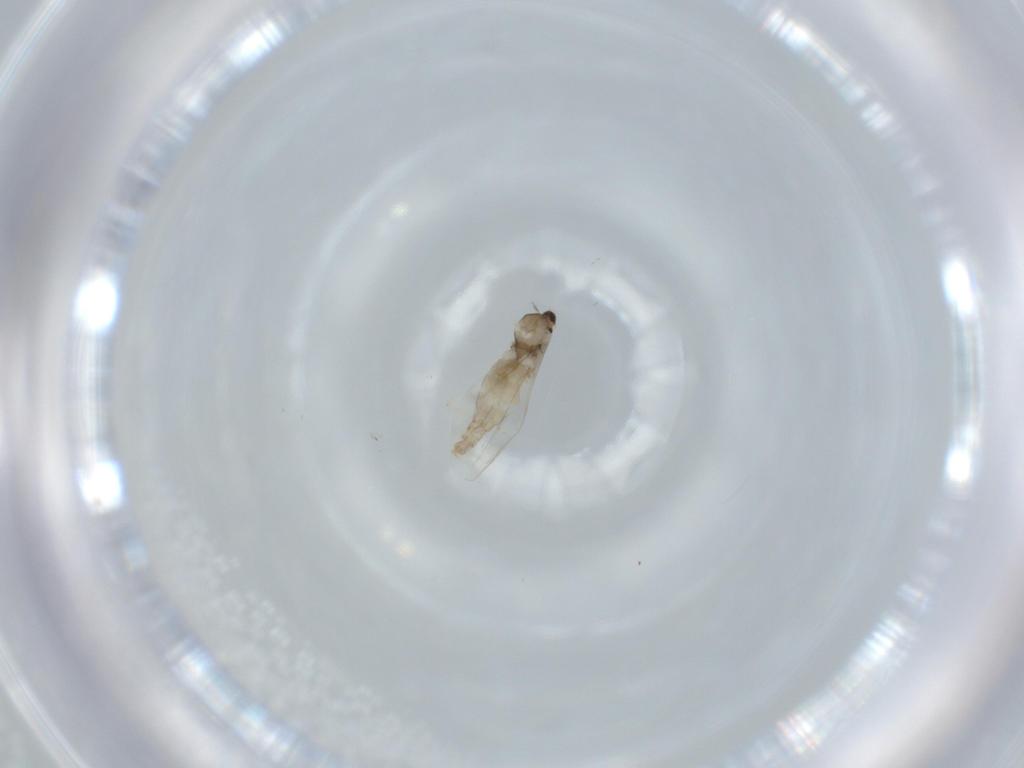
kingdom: Animalia
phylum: Arthropoda
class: Insecta
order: Diptera
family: Cecidomyiidae
